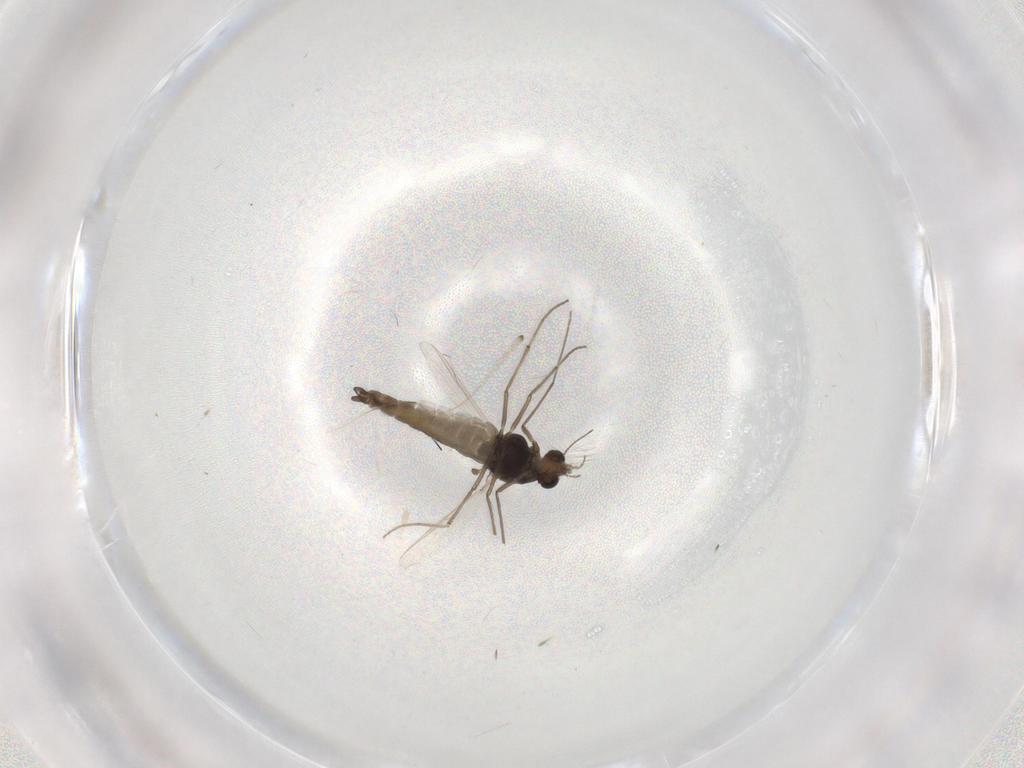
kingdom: Animalia
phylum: Arthropoda
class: Insecta
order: Diptera
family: Chironomidae
